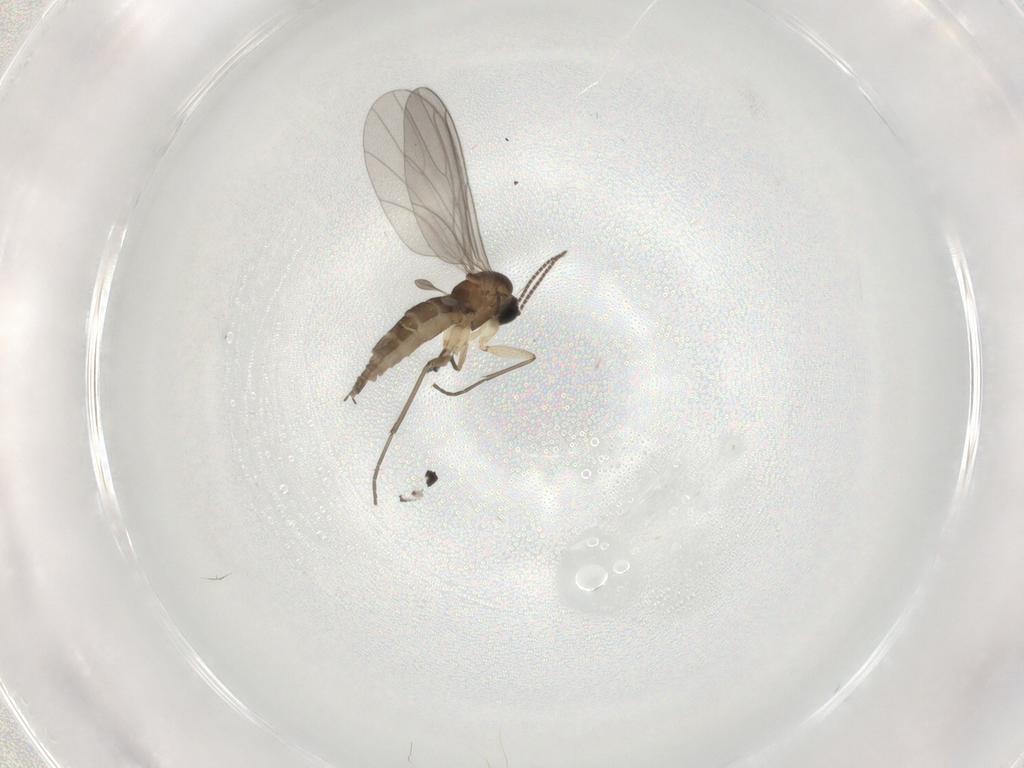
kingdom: Animalia
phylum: Arthropoda
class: Insecta
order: Diptera
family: Sciaridae
